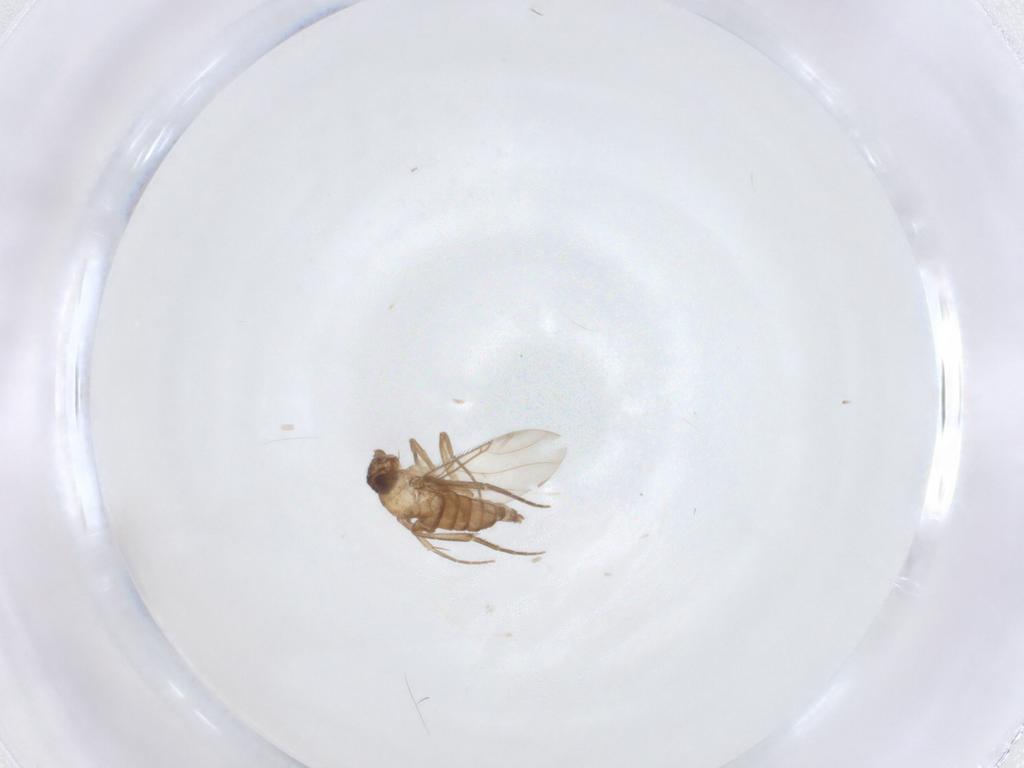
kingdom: Animalia
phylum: Arthropoda
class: Insecta
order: Diptera
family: Phoridae
